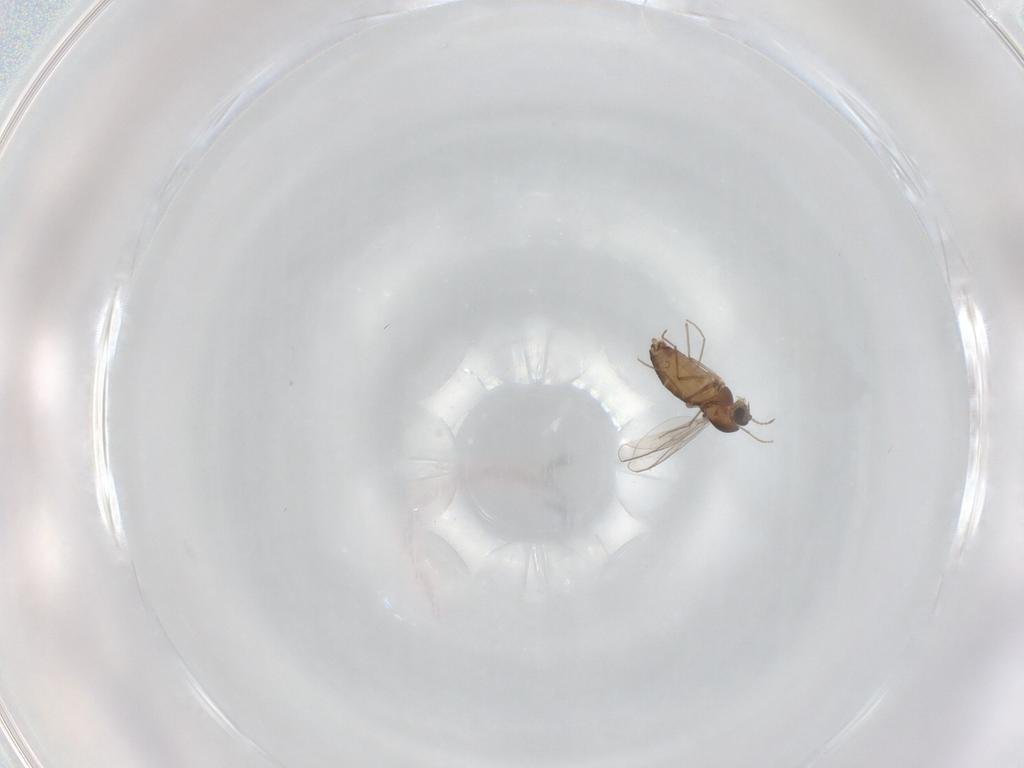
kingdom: Animalia
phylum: Arthropoda
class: Insecta
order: Diptera
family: Chironomidae
